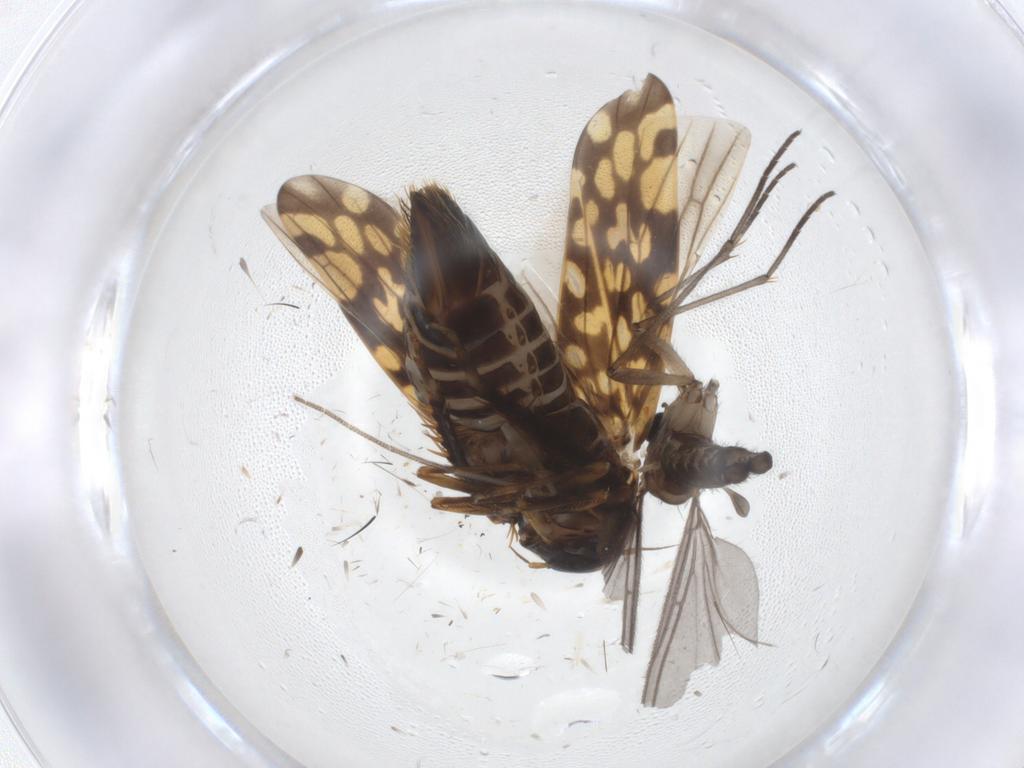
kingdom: Animalia
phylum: Arthropoda
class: Insecta
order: Hemiptera
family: Cicadellidae
